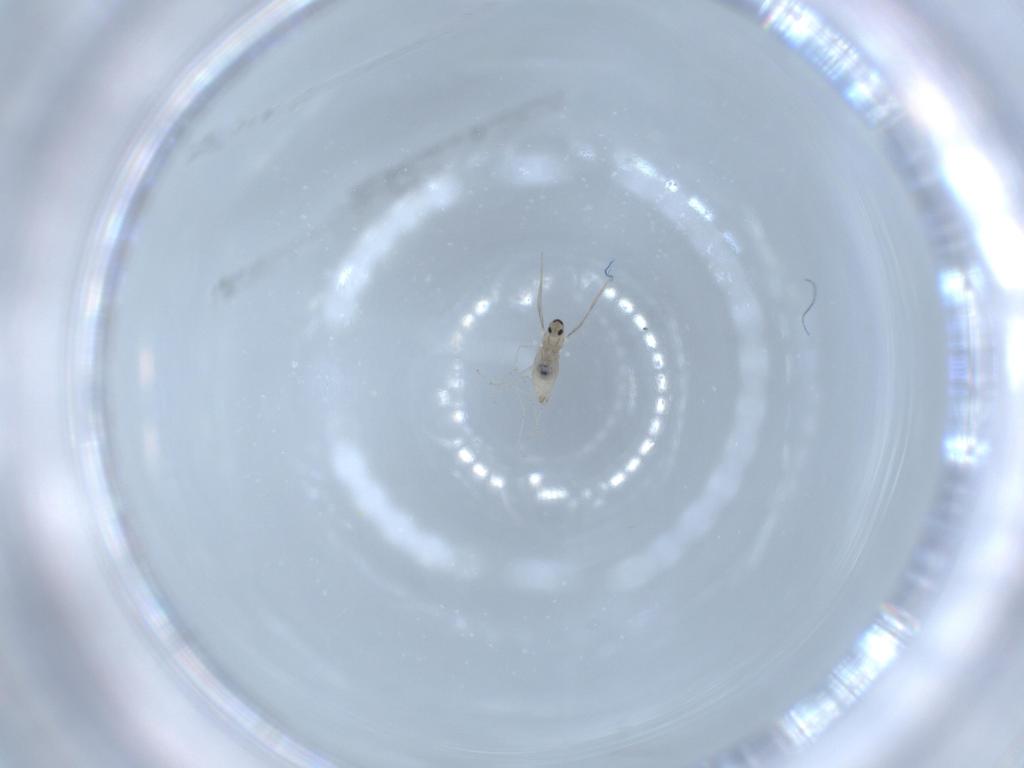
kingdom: Animalia
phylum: Arthropoda
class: Insecta
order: Diptera
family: Cecidomyiidae
